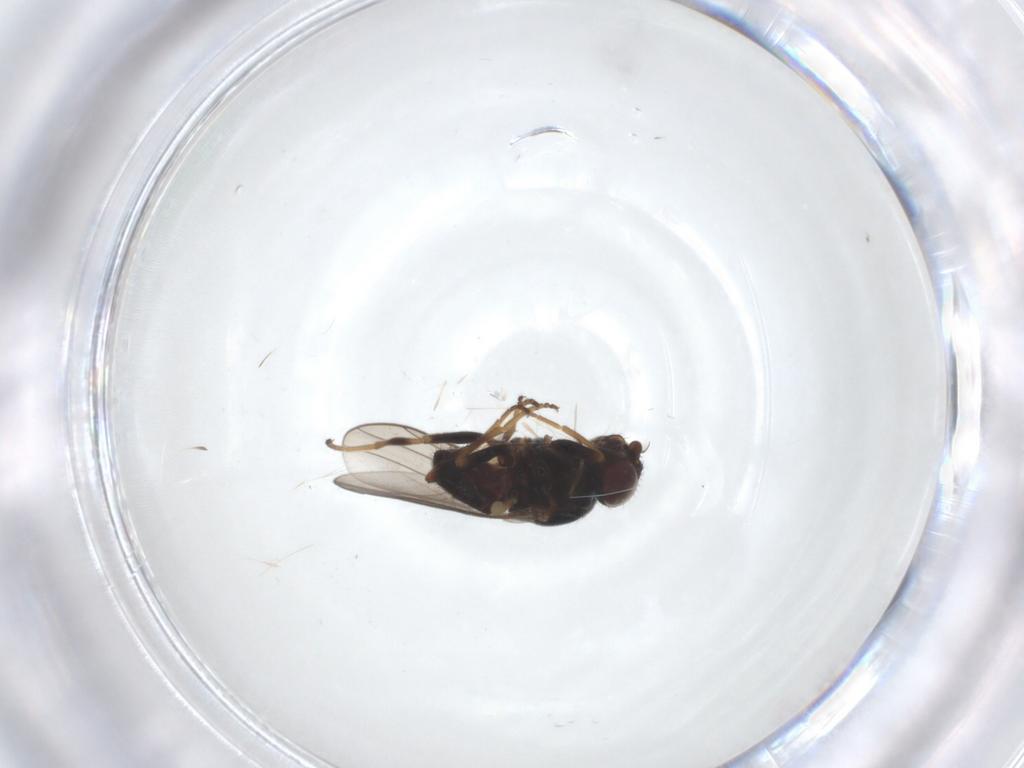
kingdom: Animalia
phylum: Arthropoda
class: Insecta
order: Diptera
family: Chloropidae
